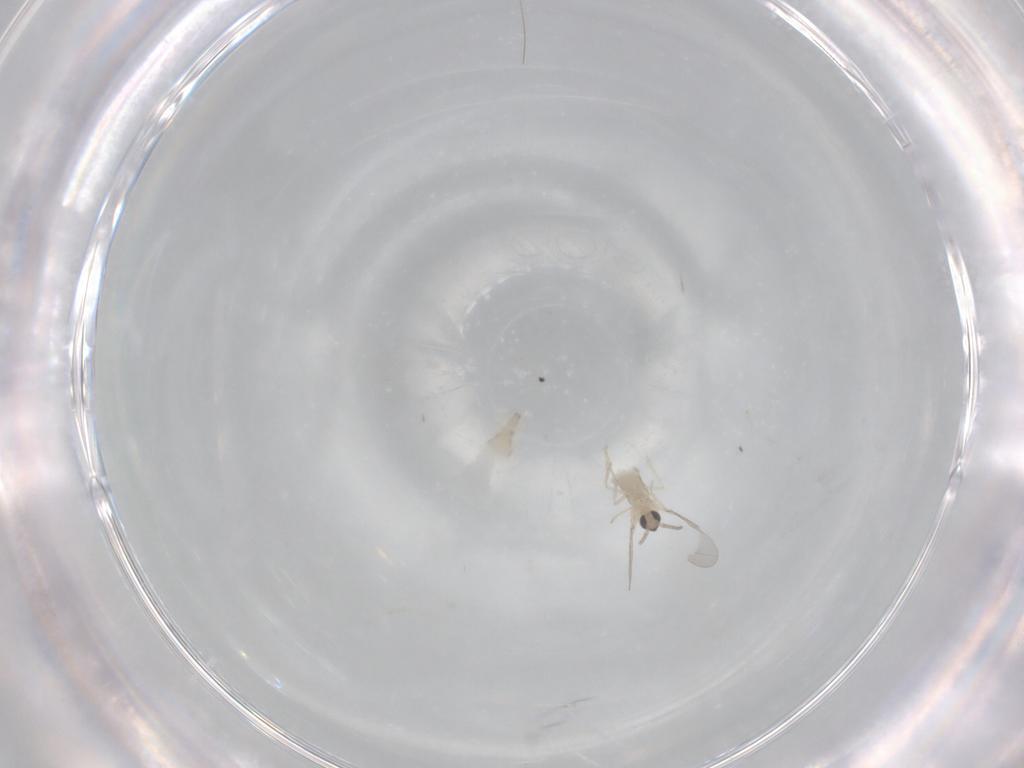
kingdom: Animalia
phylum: Arthropoda
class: Insecta
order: Diptera
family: Cecidomyiidae
